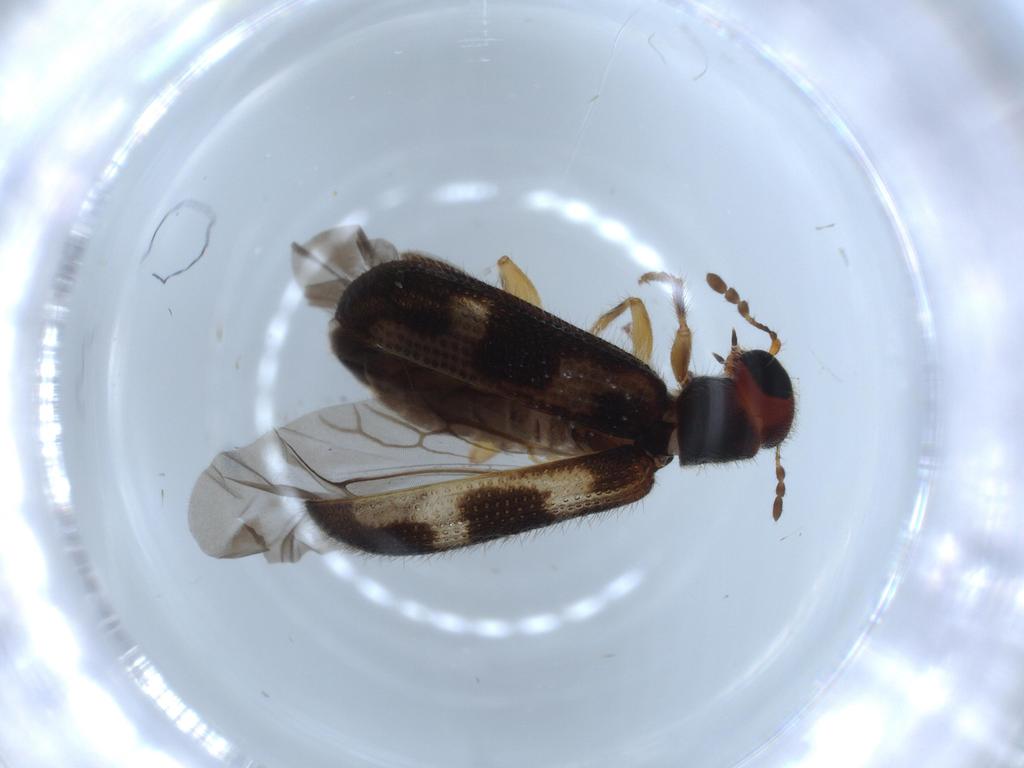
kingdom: Animalia
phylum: Arthropoda
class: Insecta
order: Coleoptera
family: Cleridae
